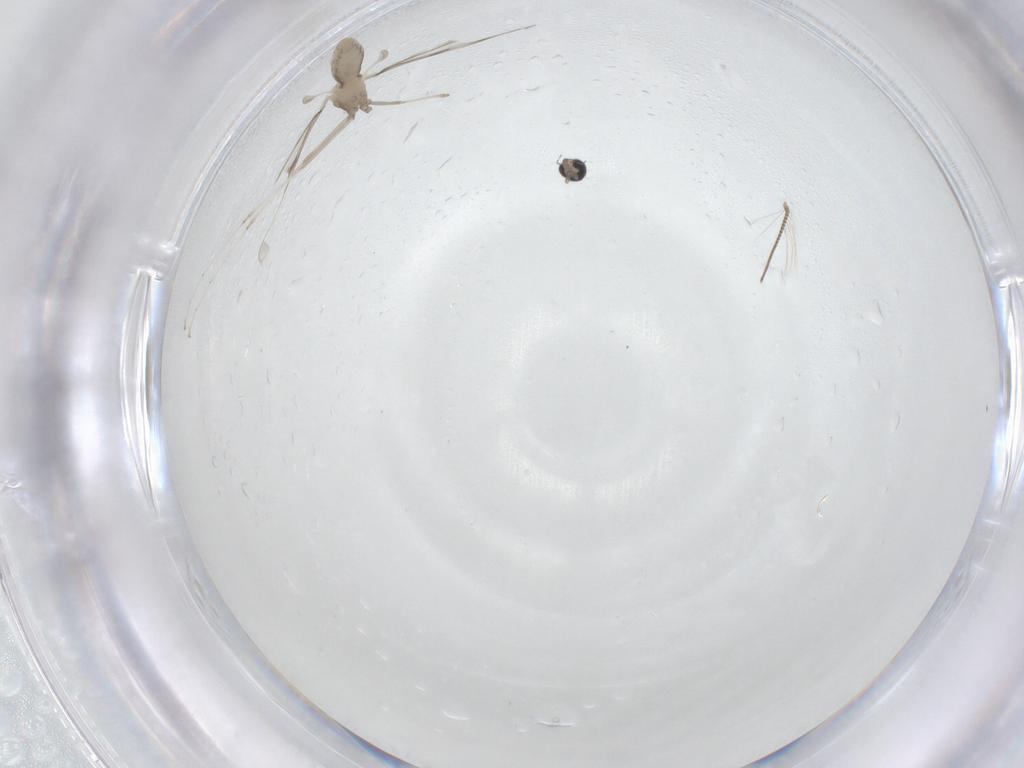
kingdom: Animalia
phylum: Arthropoda
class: Insecta
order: Diptera
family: Cecidomyiidae
